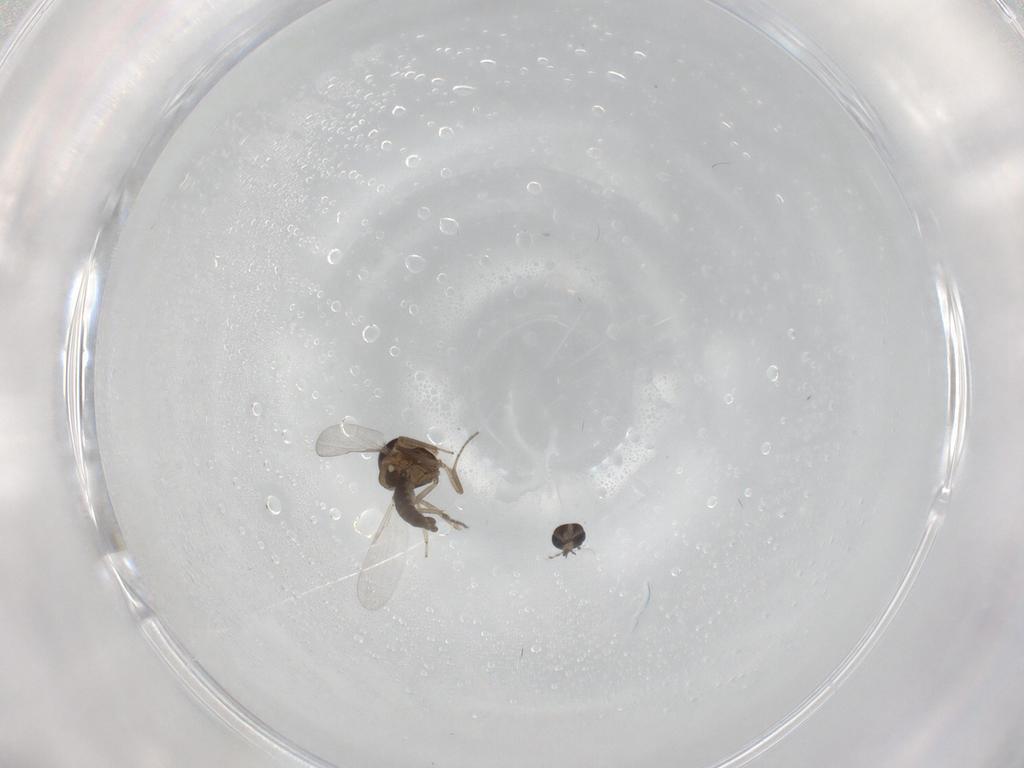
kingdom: Animalia
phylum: Arthropoda
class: Insecta
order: Diptera
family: Ceratopogonidae
